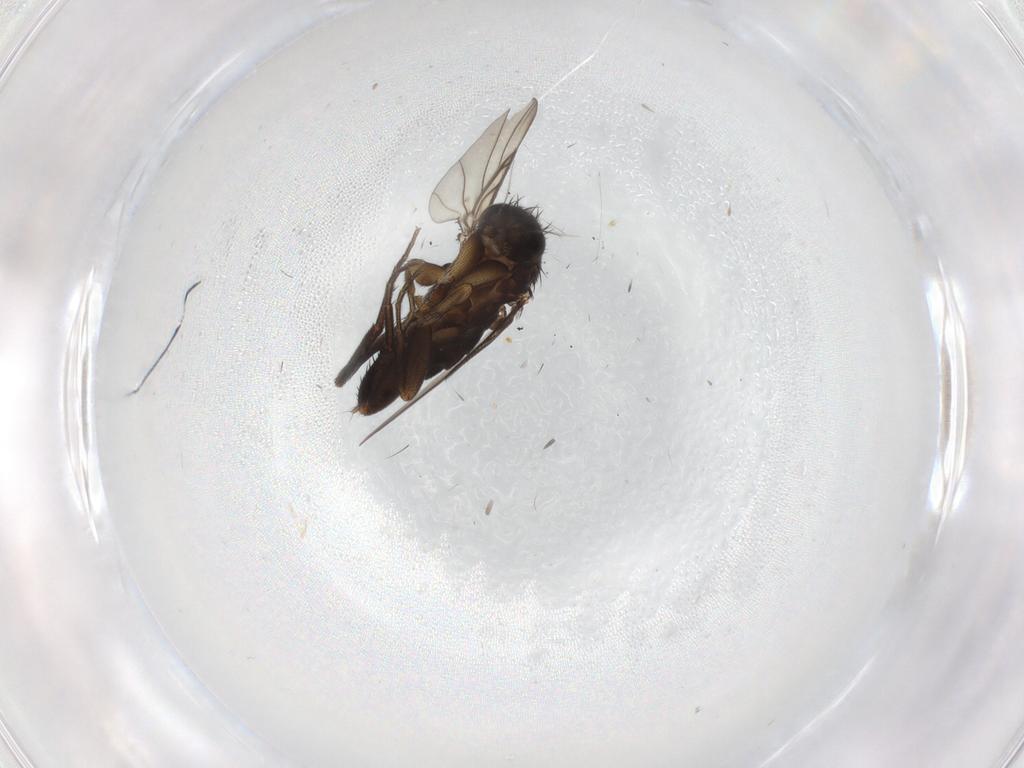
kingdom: Animalia
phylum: Arthropoda
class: Insecta
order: Diptera
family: Phoridae
